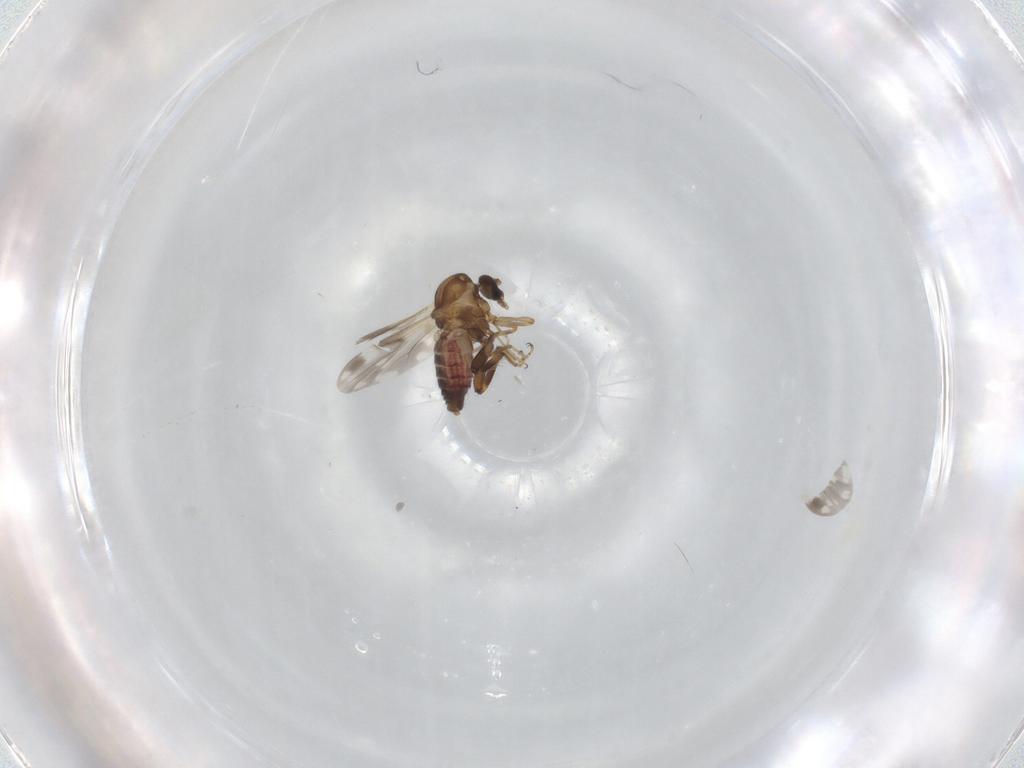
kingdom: Animalia
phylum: Arthropoda
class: Insecta
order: Diptera
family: Ceratopogonidae
